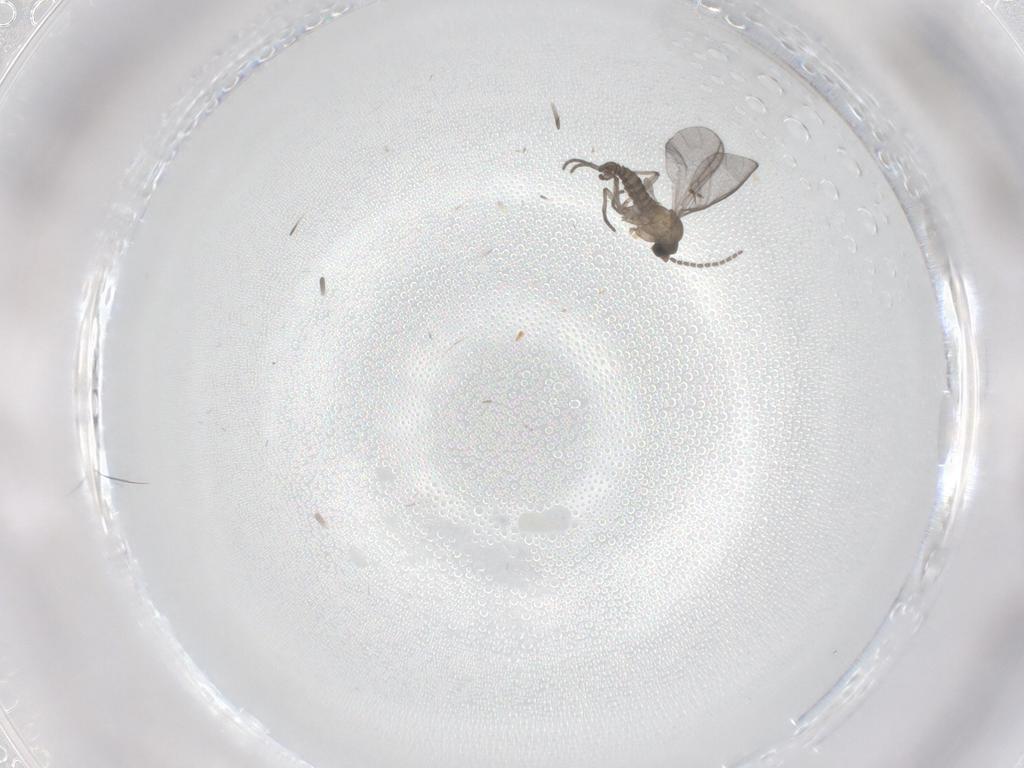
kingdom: Animalia
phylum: Arthropoda
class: Insecta
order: Diptera
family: Sciaridae
